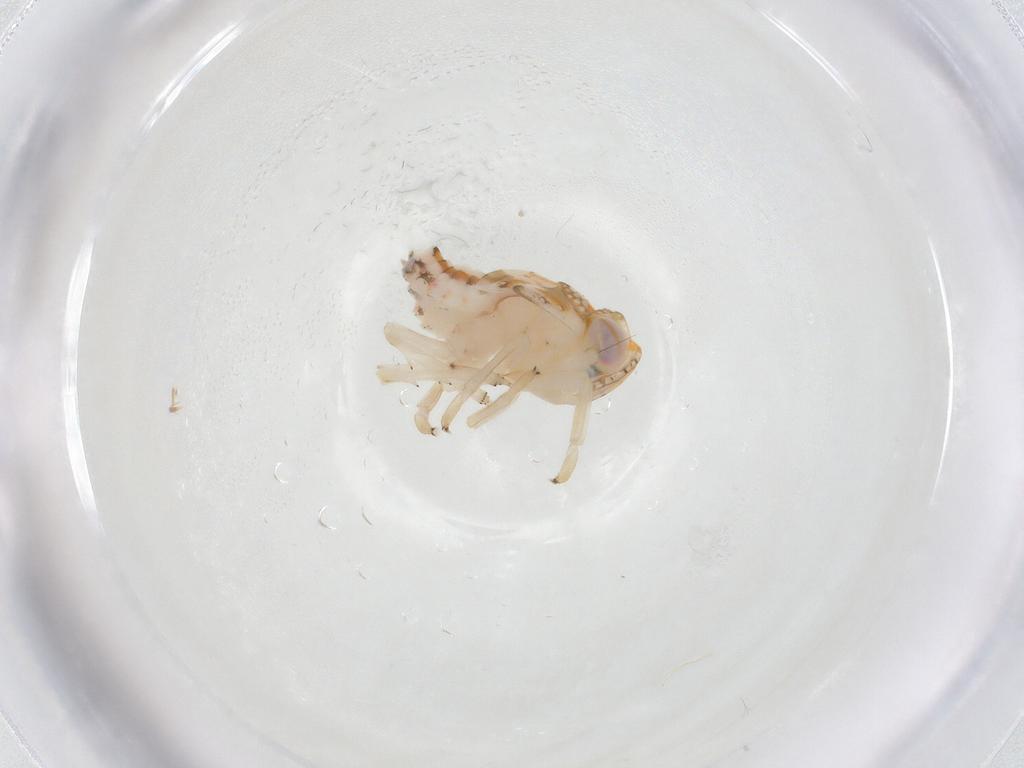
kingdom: Animalia
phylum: Arthropoda
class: Insecta
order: Hemiptera
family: Nogodinidae
